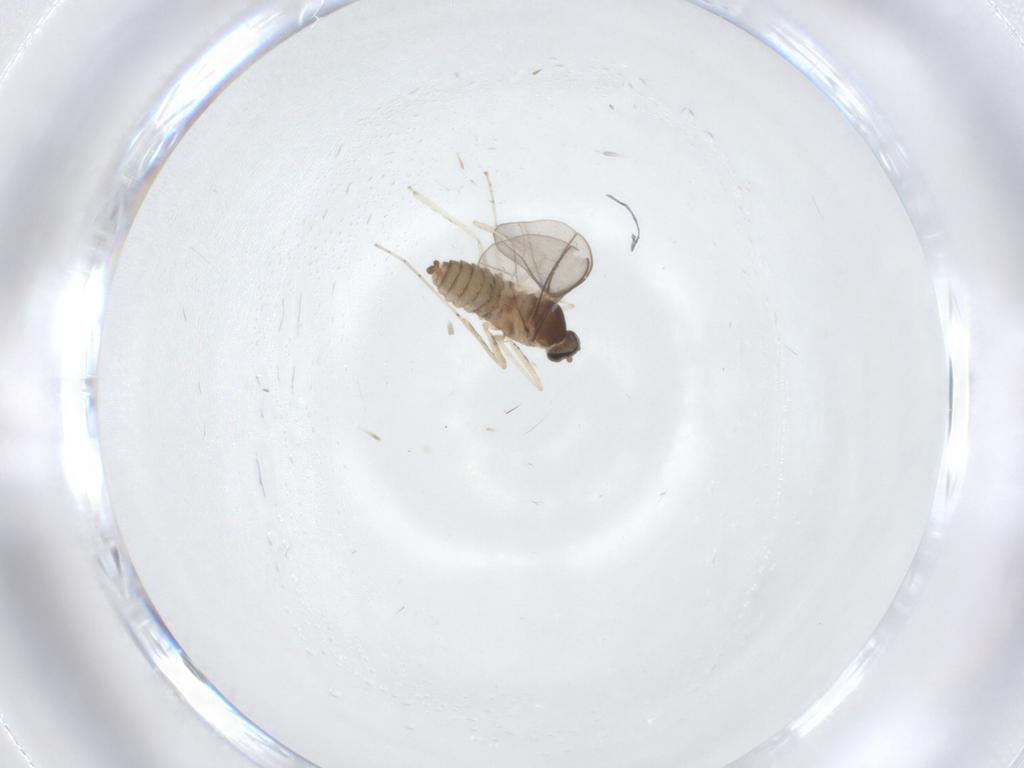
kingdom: Animalia
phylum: Arthropoda
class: Insecta
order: Diptera
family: Cecidomyiidae
